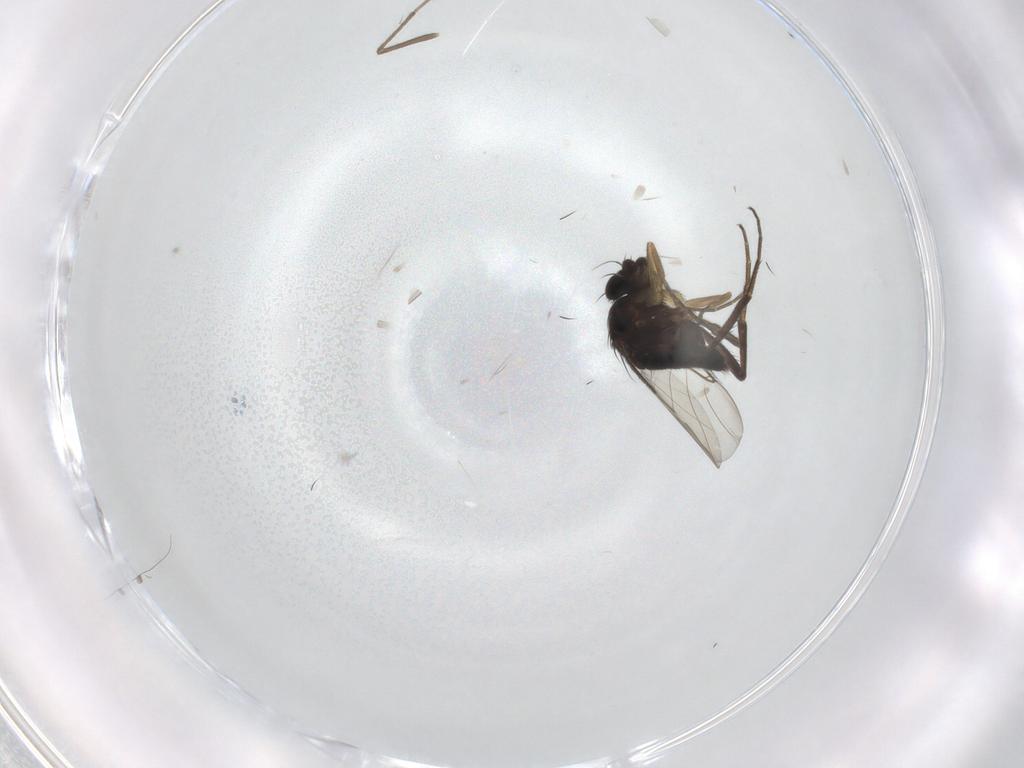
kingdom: Animalia
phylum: Arthropoda
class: Insecta
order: Diptera
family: Phoridae
